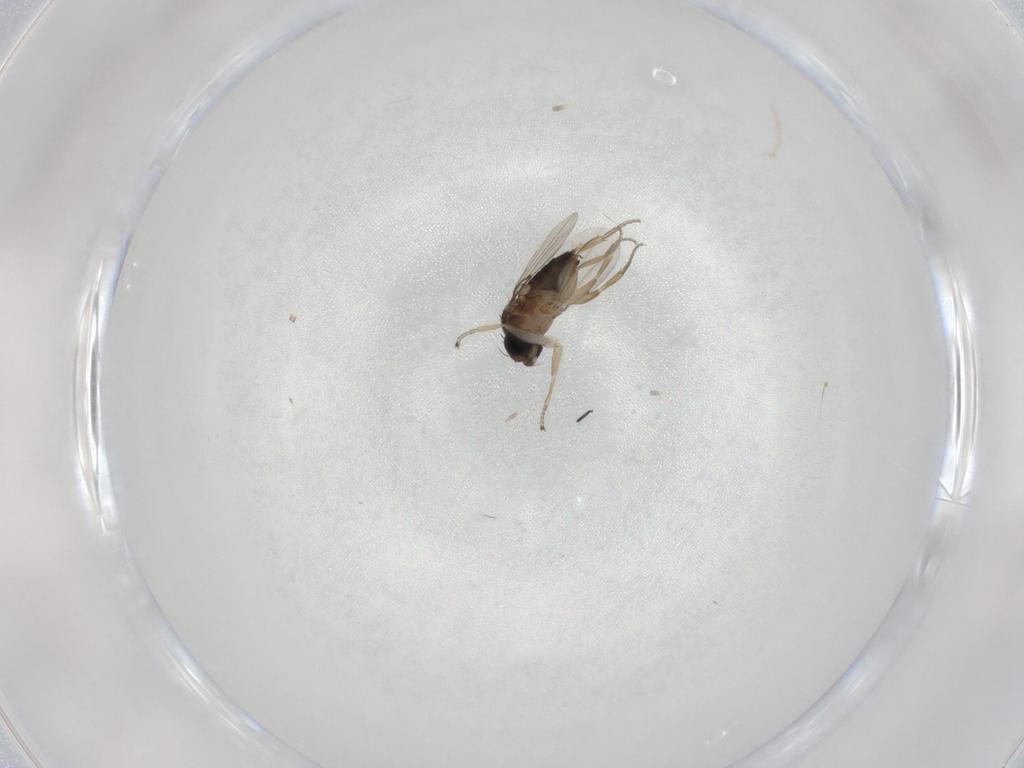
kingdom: Animalia
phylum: Arthropoda
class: Insecta
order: Diptera
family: Phoridae
